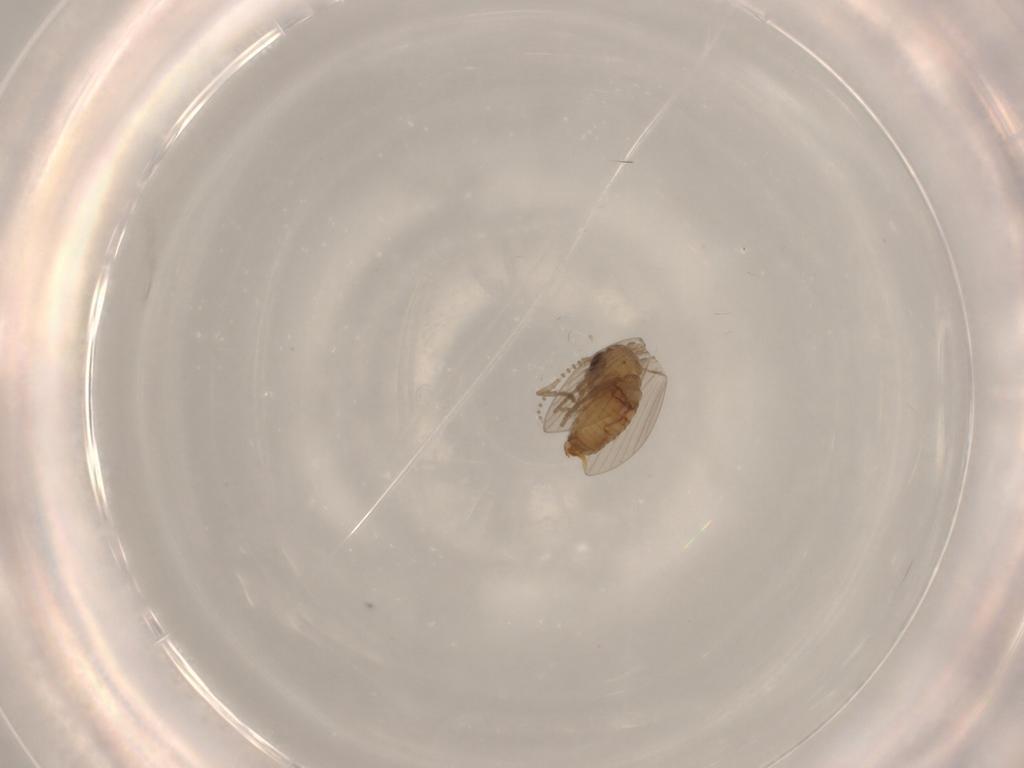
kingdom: Animalia
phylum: Arthropoda
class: Insecta
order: Diptera
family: Psychodidae
